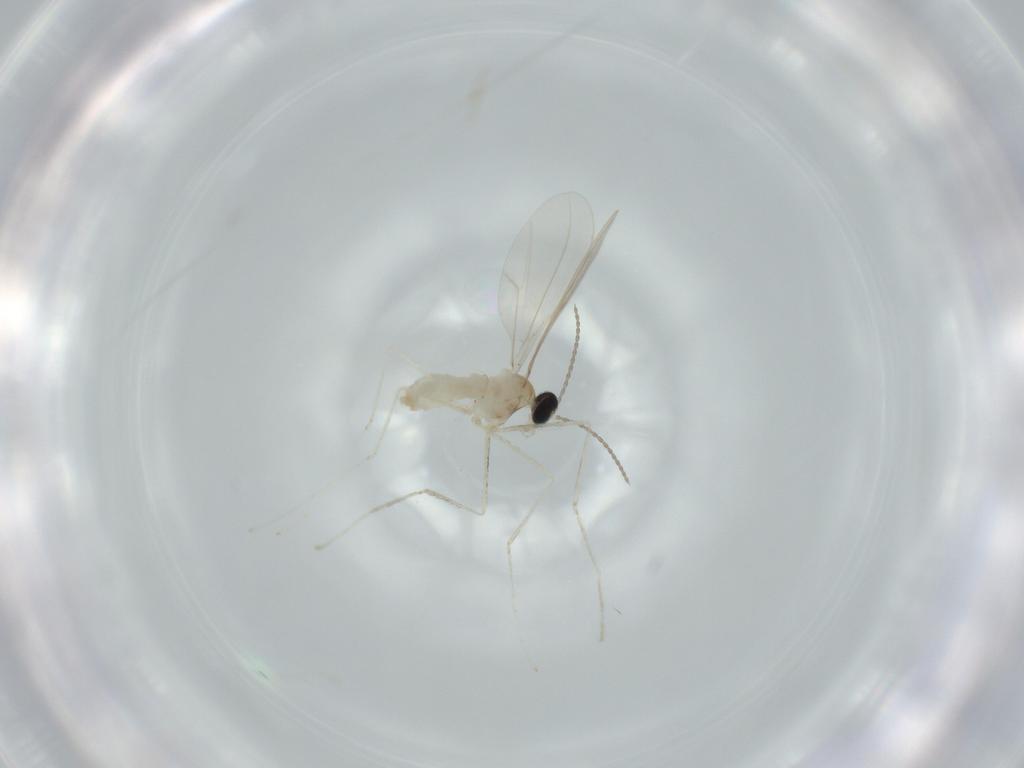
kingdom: Animalia
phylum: Arthropoda
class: Insecta
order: Diptera
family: Cecidomyiidae
